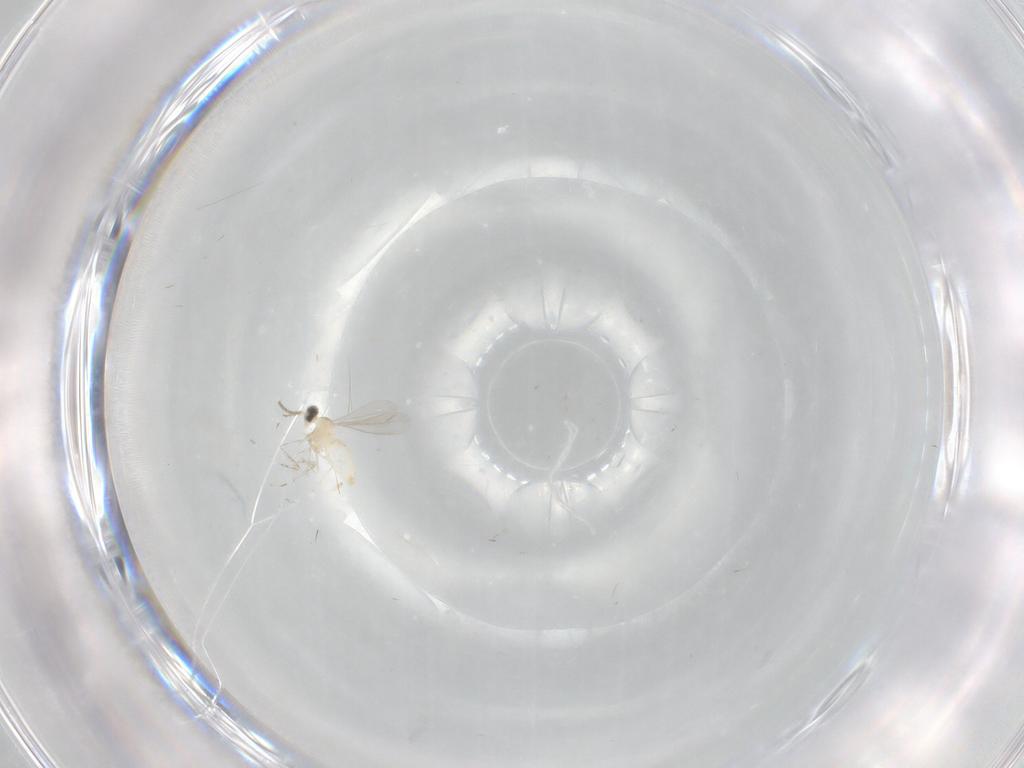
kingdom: Animalia
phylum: Arthropoda
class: Insecta
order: Diptera
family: Cecidomyiidae
